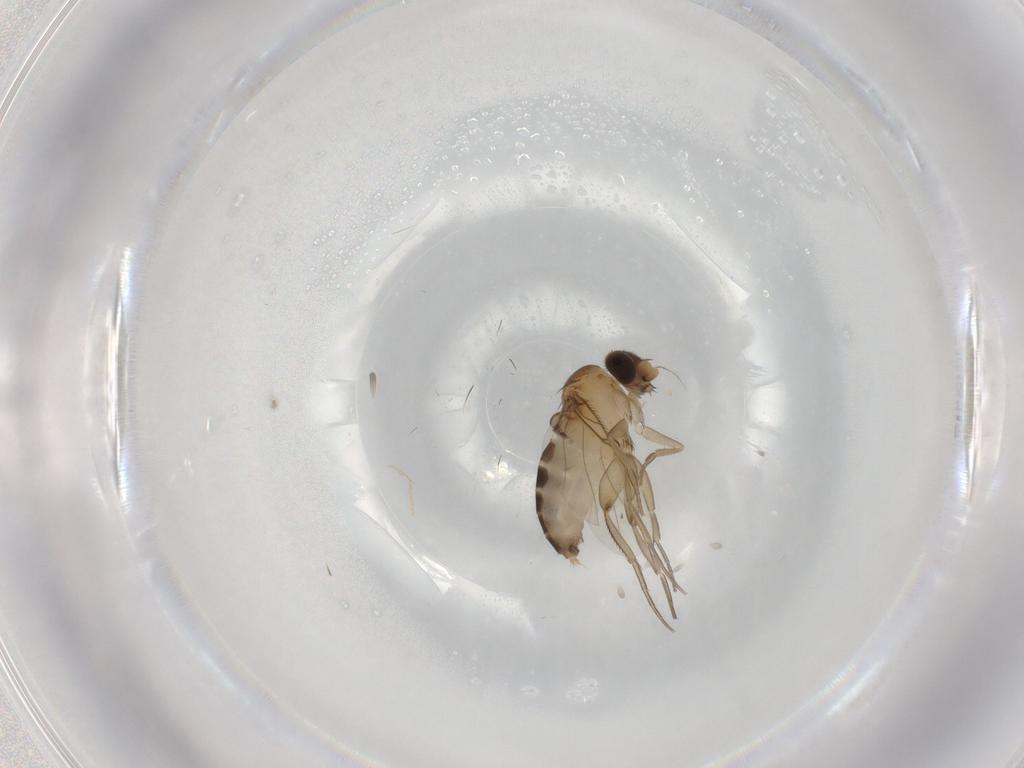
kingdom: Animalia
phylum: Arthropoda
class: Insecta
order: Diptera
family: Phoridae
